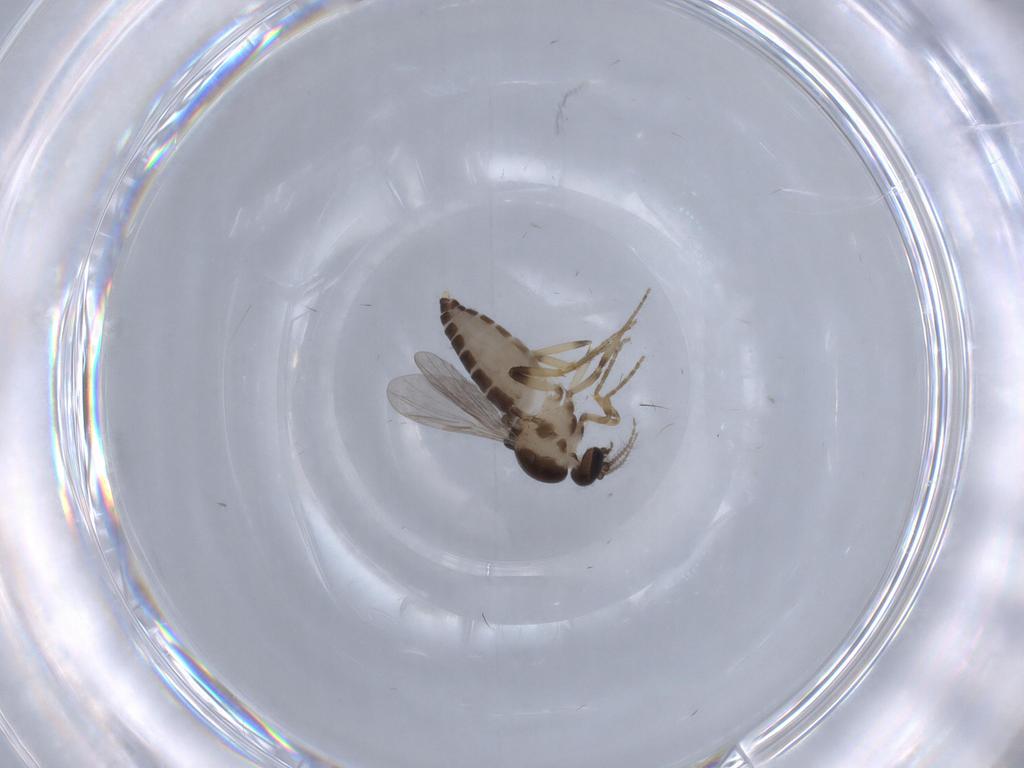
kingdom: Animalia
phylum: Arthropoda
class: Insecta
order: Diptera
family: Ceratopogonidae
